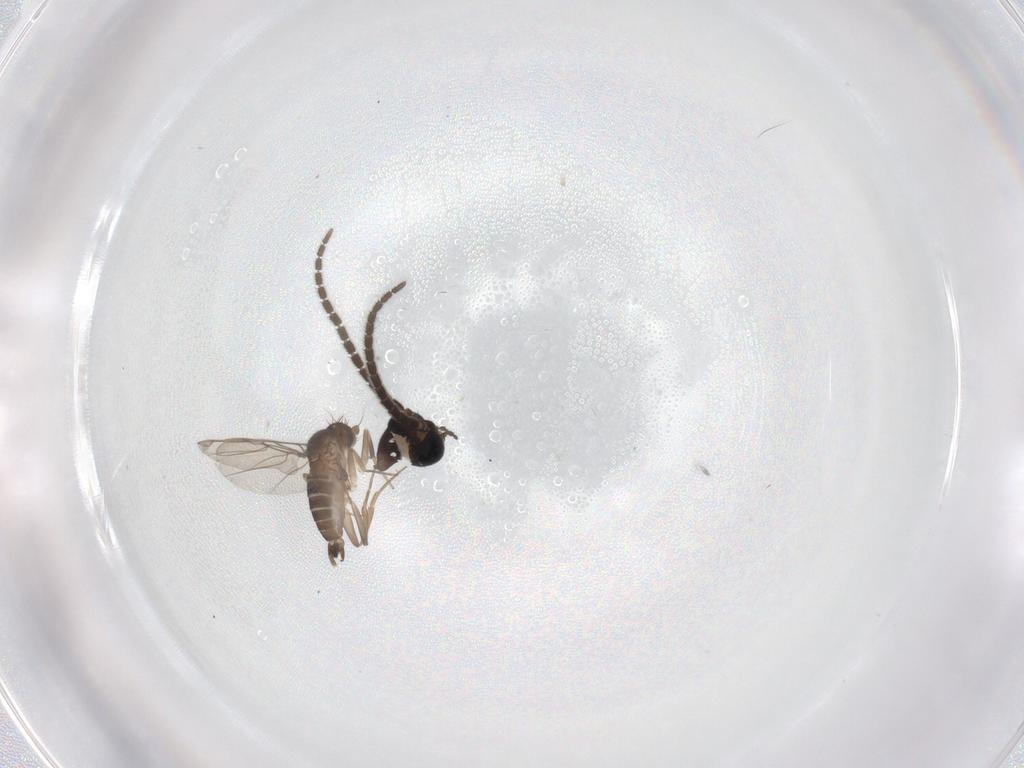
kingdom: Animalia
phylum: Arthropoda
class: Insecta
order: Diptera
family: Sciaridae
